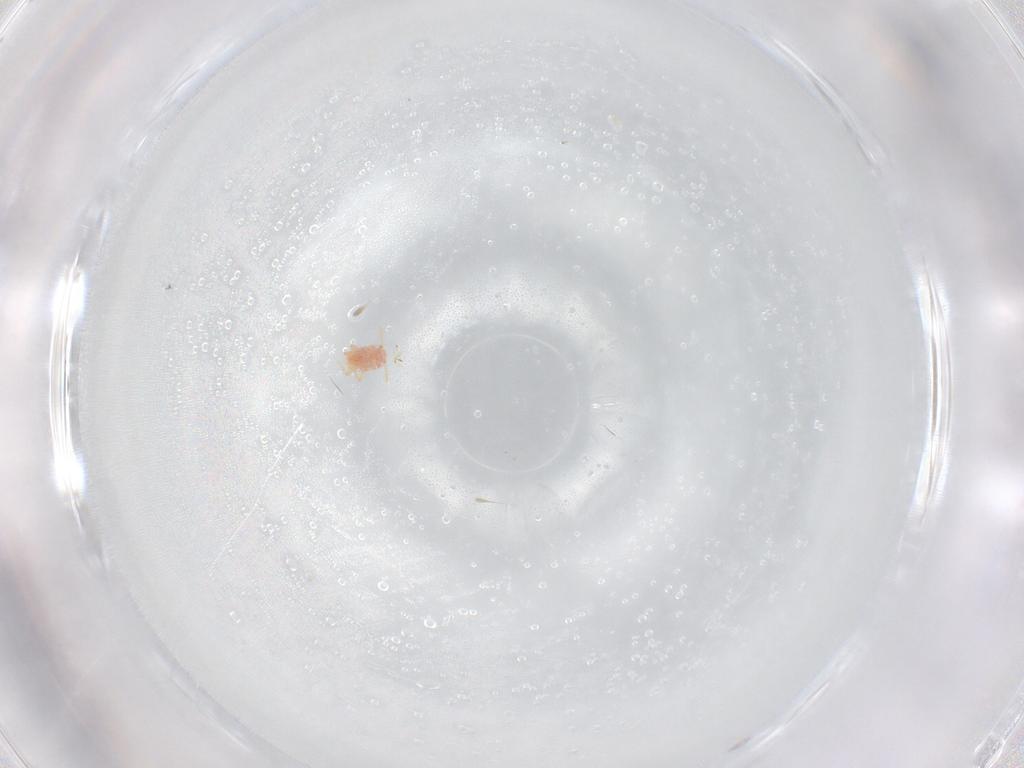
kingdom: Animalia
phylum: Arthropoda
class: Insecta
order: Hemiptera
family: Cicadellidae
